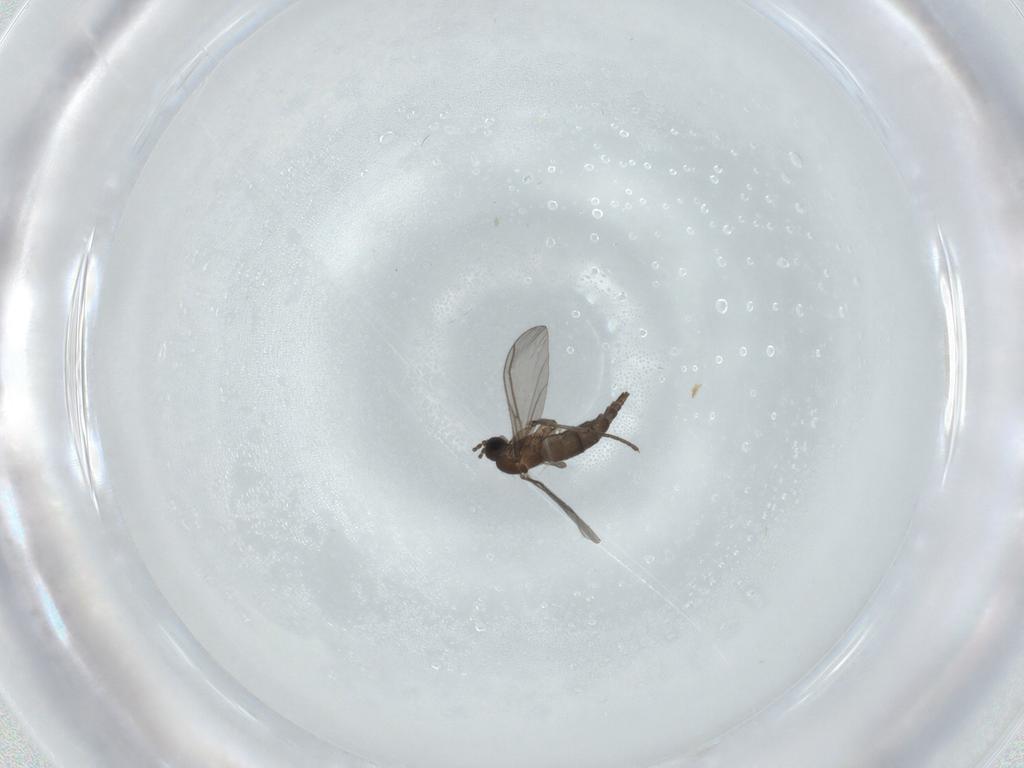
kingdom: Animalia
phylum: Arthropoda
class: Insecta
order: Diptera
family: Limoniidae
